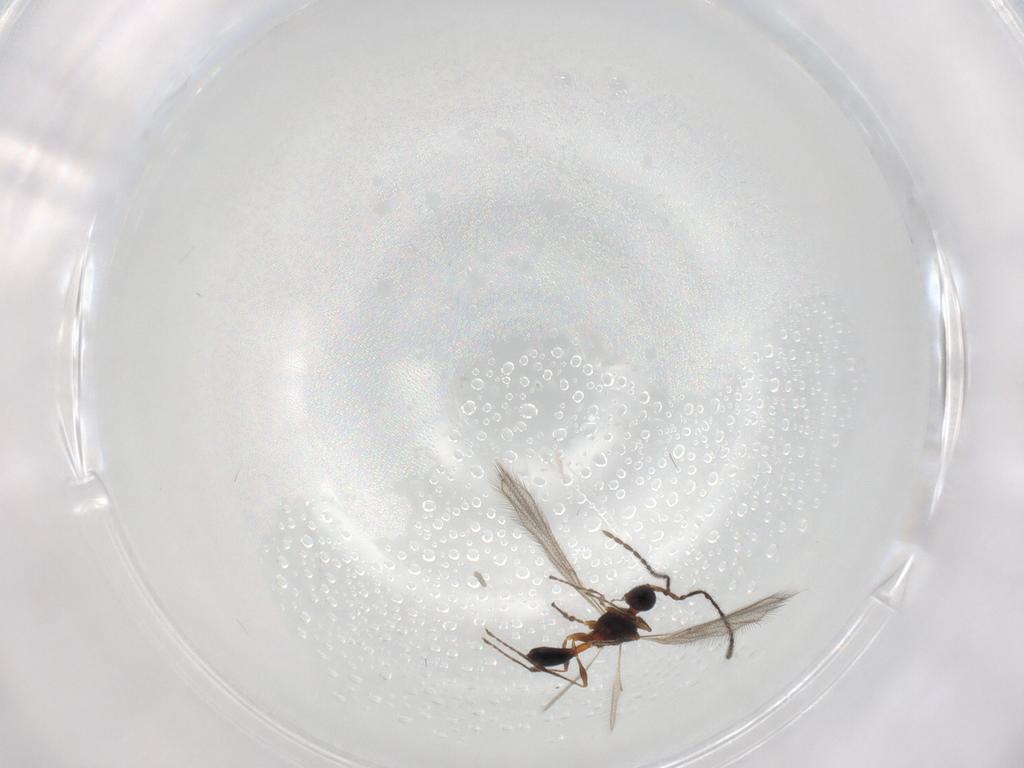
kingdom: Animalia
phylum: Arthropoda
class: Insecta
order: Hymenoptera
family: Diapriidae
